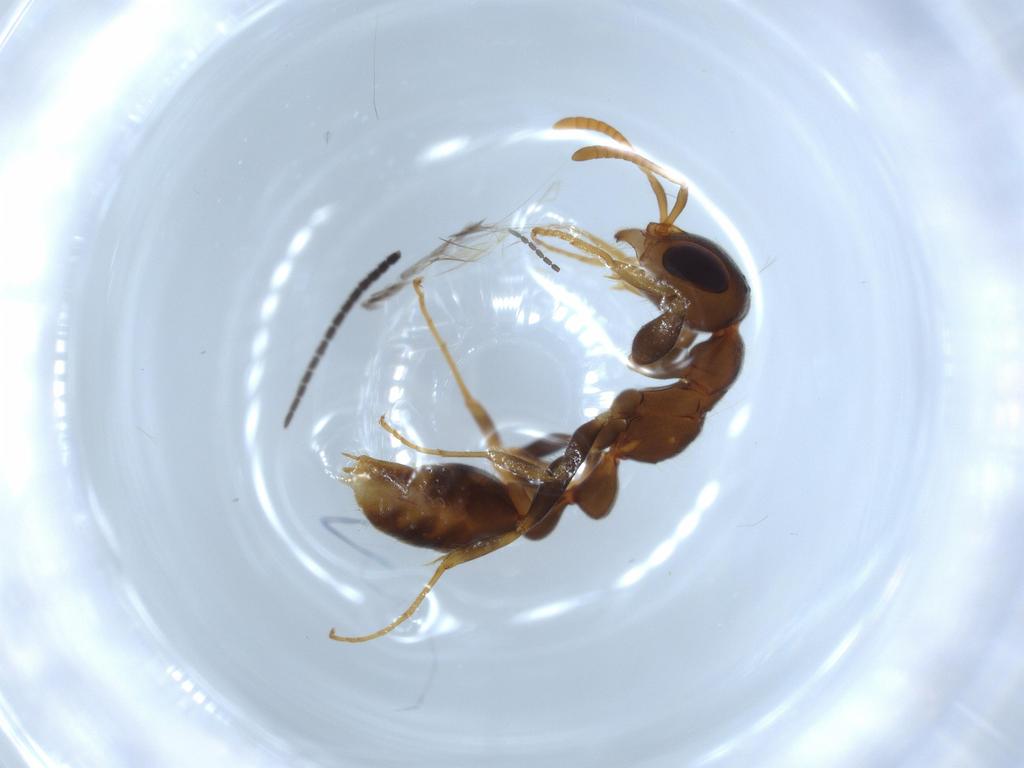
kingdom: Animalia
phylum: Arthropoda
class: Insecta
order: Hymenoptera
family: Formicidae
